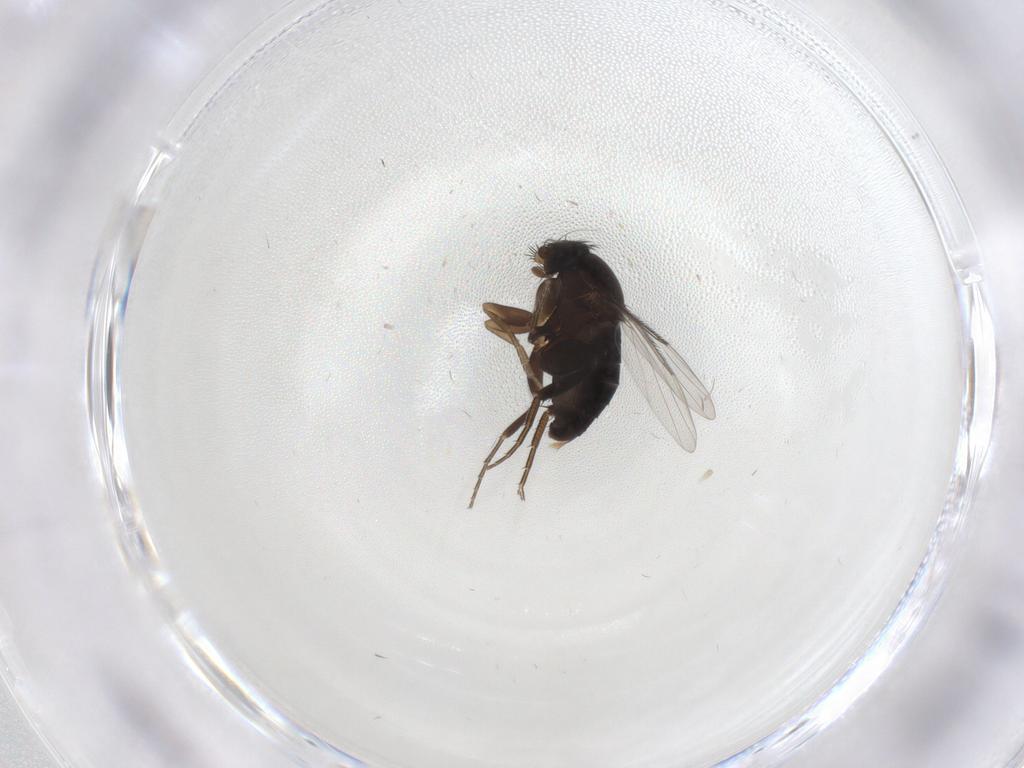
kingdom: Animalia
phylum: Arthropoda
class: Insecta
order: Diptera
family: Phoridae
